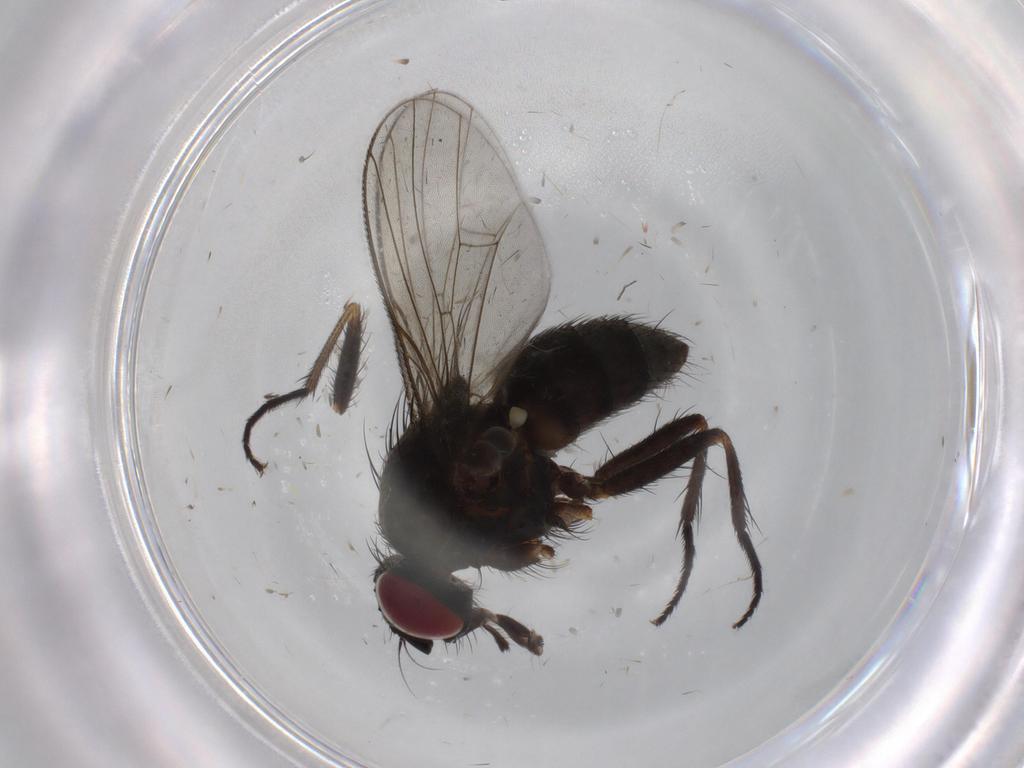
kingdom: Animalia
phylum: Arthropoda
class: Insecta
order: Diptera
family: Muscidae
